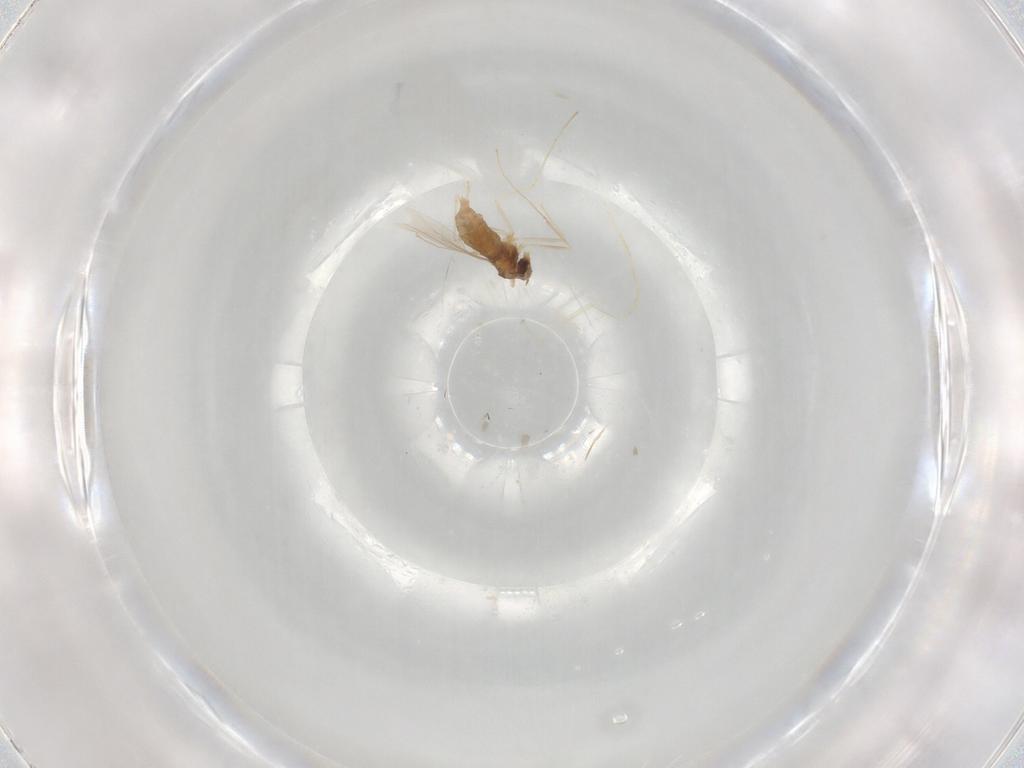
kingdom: Animalia
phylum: Arthropoda
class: Insecta
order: Diptera
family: Cecidomyiidae
